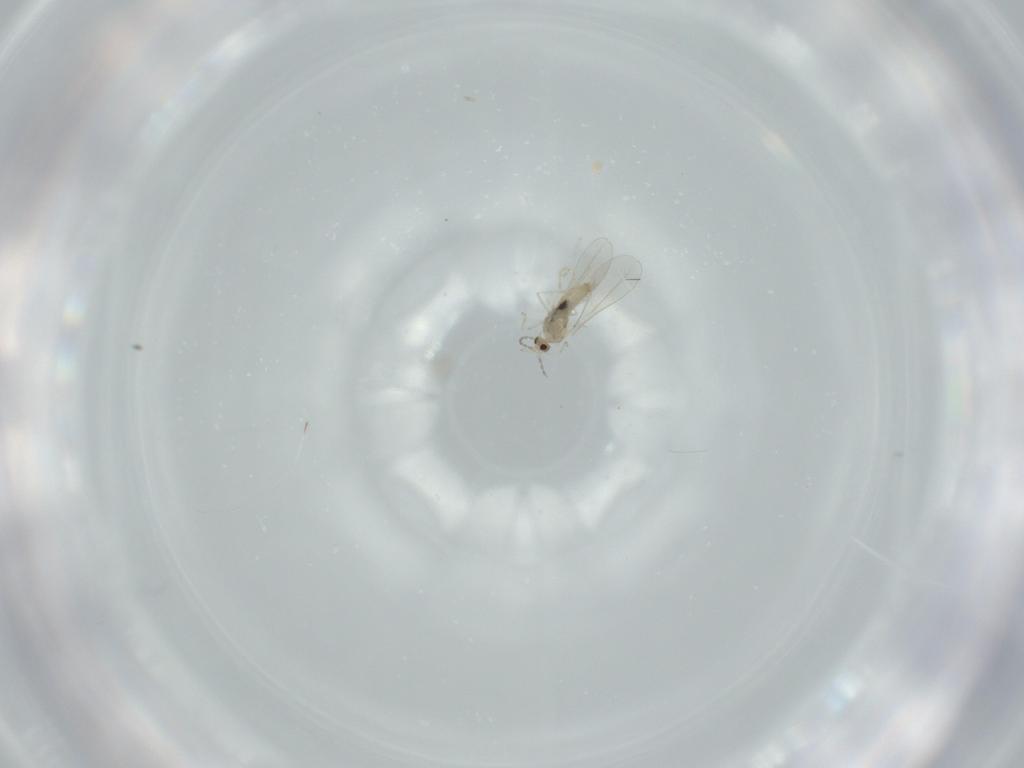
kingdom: Animalia
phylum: Arthropoda
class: Insecta
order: Diptera
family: Cecidomyiidae
